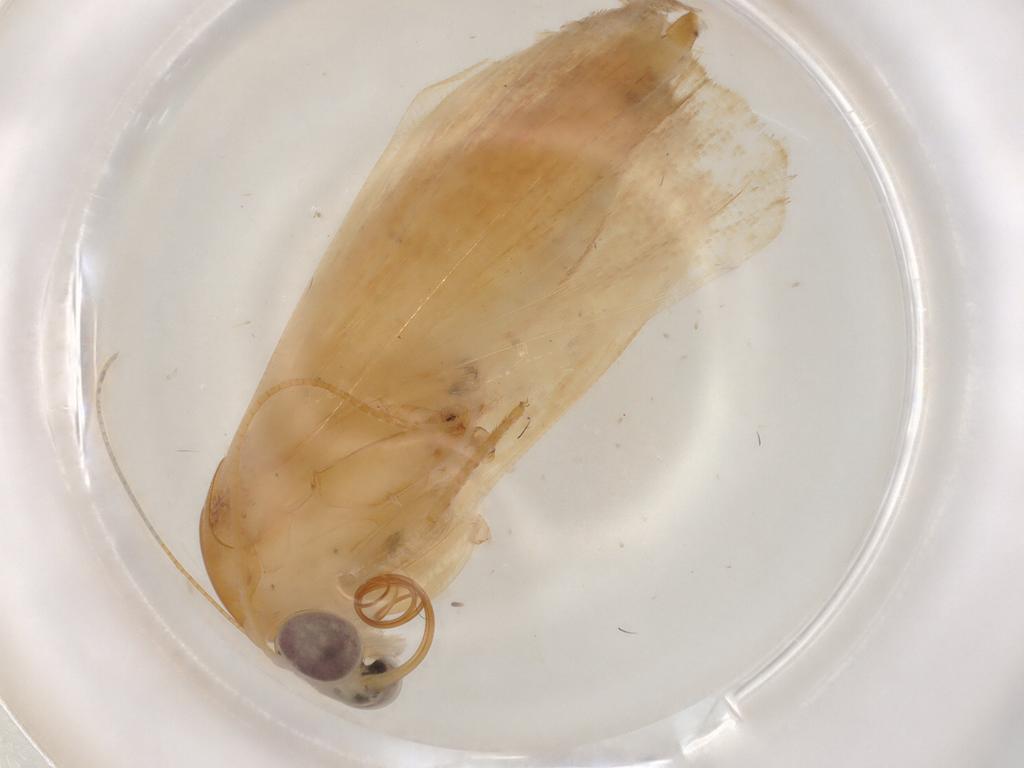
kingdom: Animalia
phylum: Arthropoda
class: Insecta
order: Lepidoptera
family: Noctuidae
